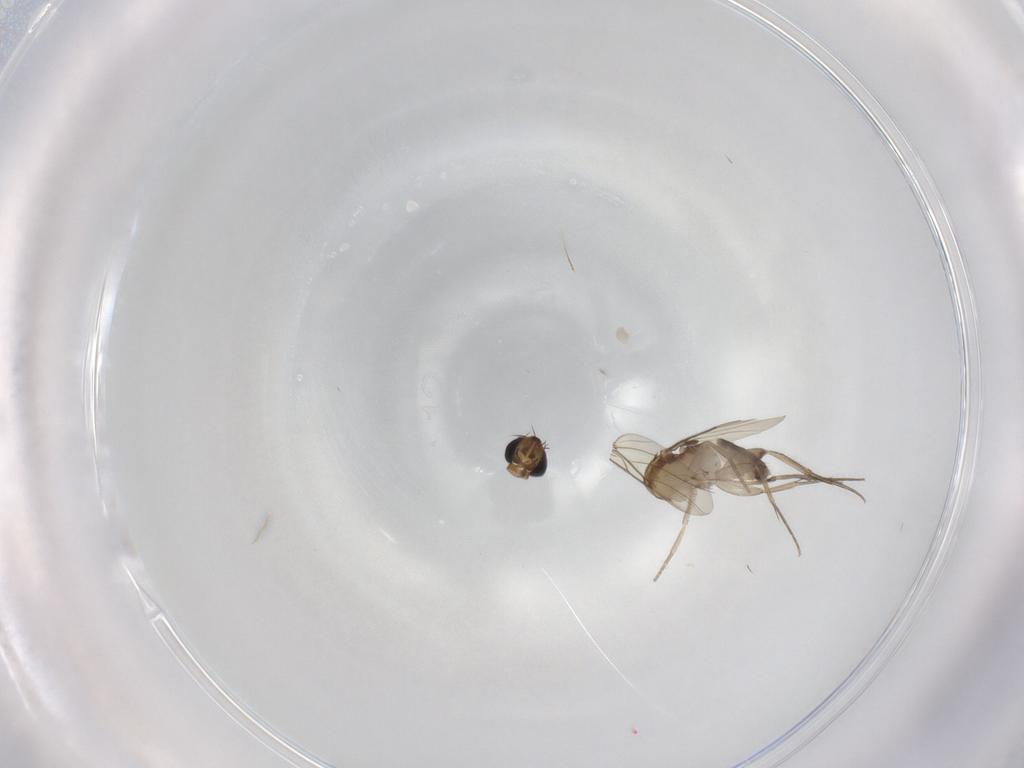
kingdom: Animalia
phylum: Arthropoda
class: Insecta
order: Diptera
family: Phoridae
